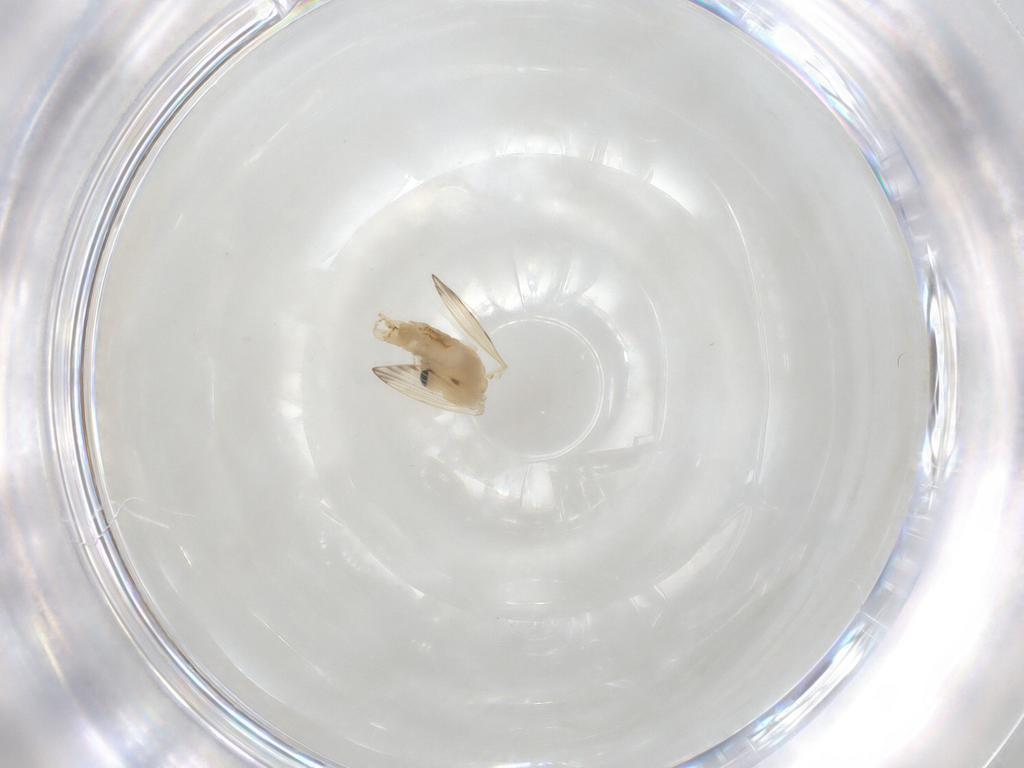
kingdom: Animalia
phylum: Arthropoda
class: Insecta
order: Diptera
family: Psychodidae
